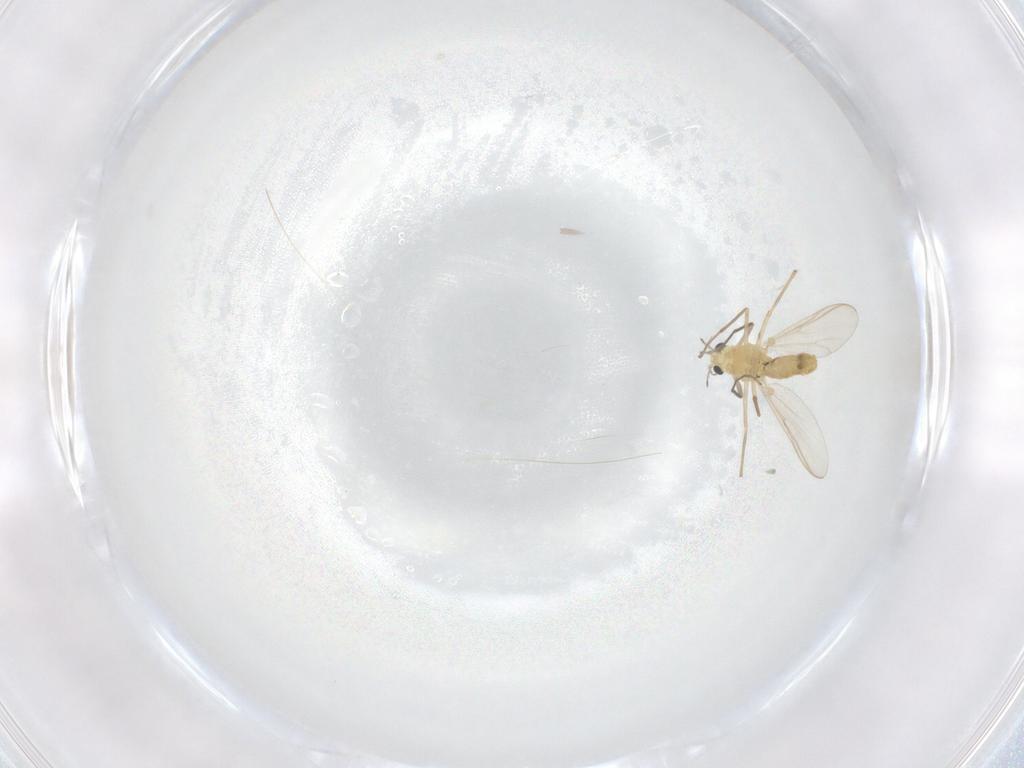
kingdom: Animalia
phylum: Arthropoda
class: Insecta
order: Diptera
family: Chironomidae
